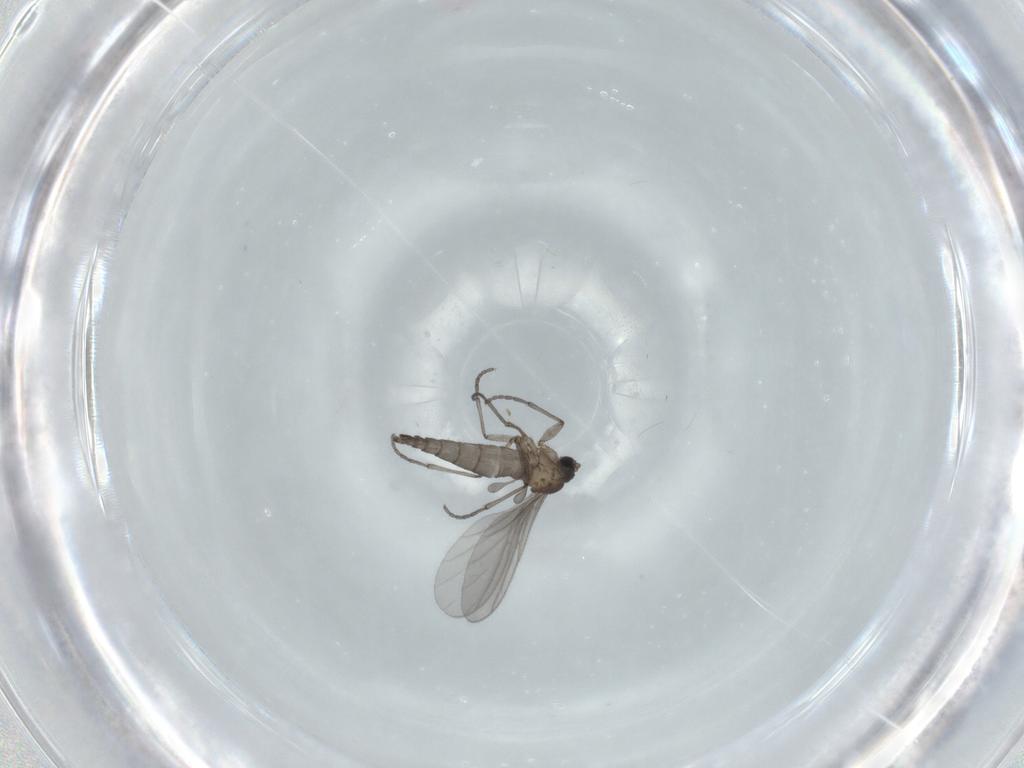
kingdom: Animalia
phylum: Arthropoda
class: Insecta
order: Diptera
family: Sciaridae
